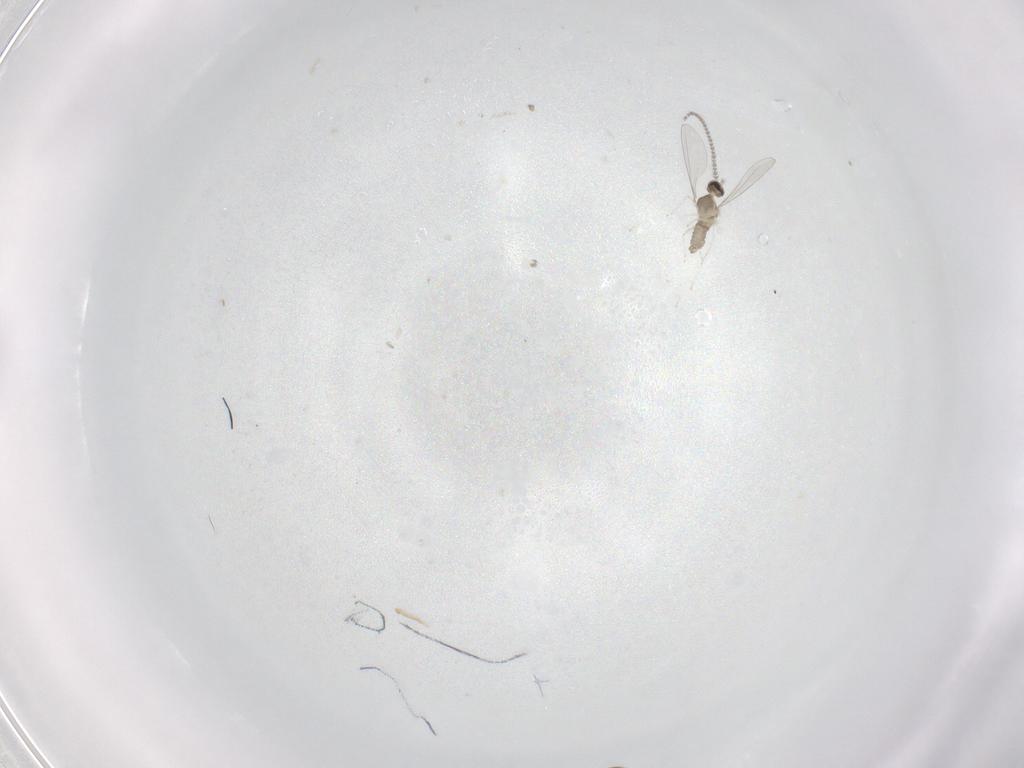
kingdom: Animalia
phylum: Arthropoda
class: Insecta
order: Diptera
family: Cecidomyiidae
